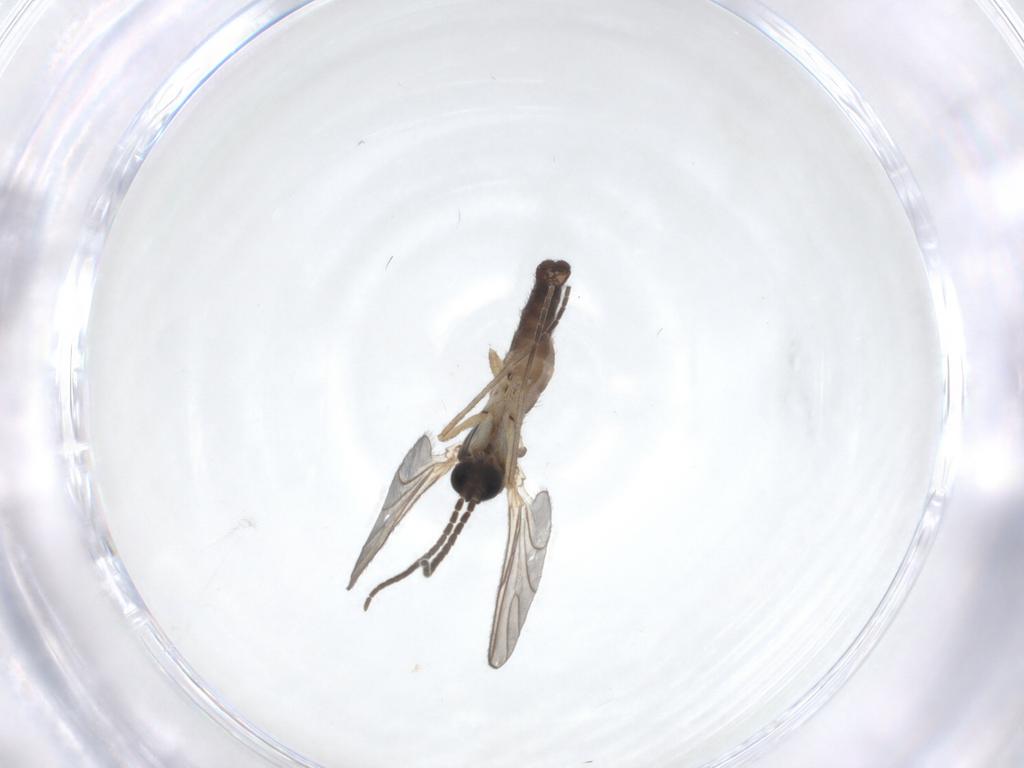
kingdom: Animalia
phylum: Arthropoda
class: Insecta
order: Diptera
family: Sciaridae
